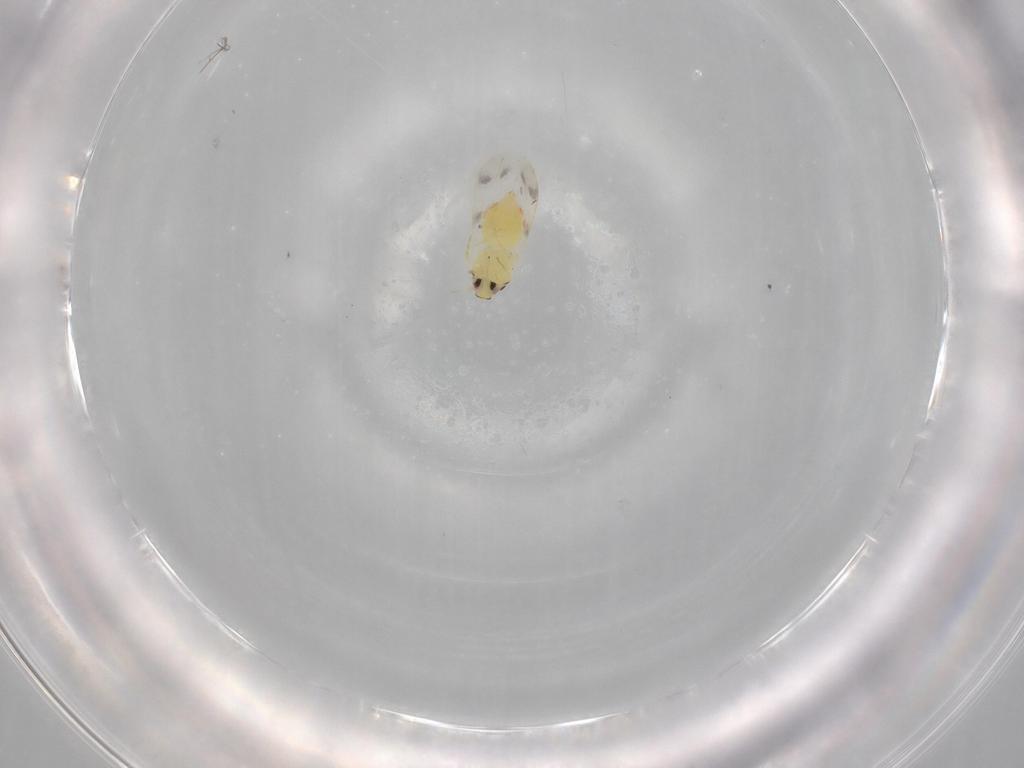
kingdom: Animalia
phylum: Arthropoda
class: Insecta
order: Hemiptera
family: Aleyrodidae
